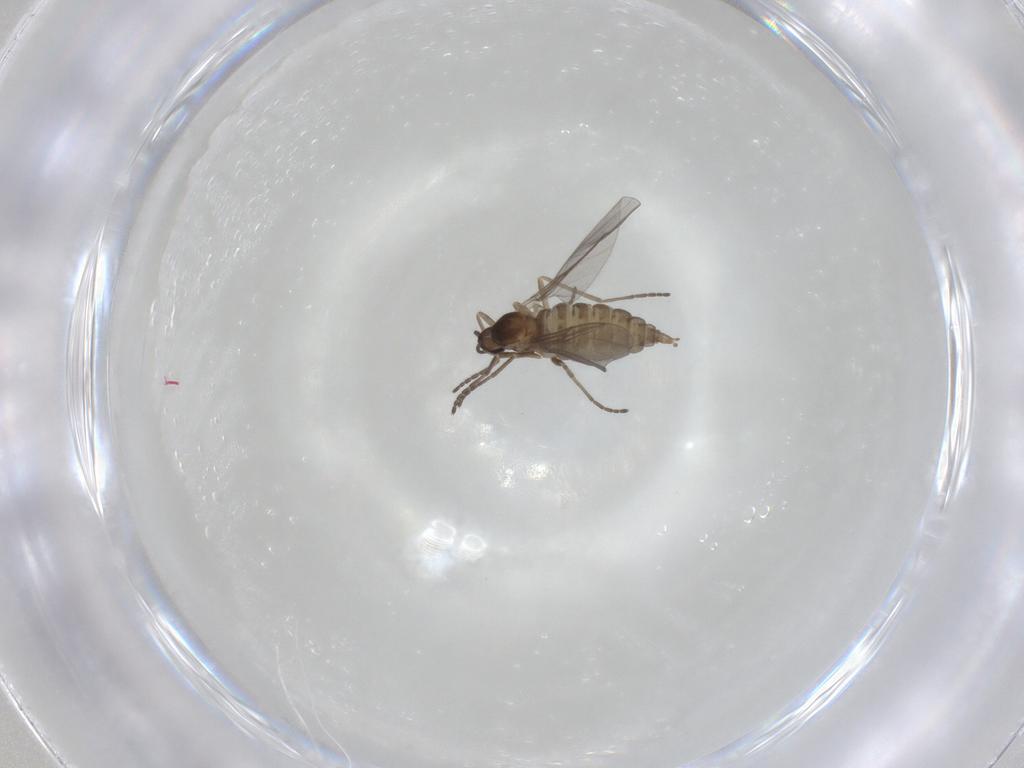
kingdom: Animalia
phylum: Arthropoda
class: Insecta
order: Diptera
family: Cecidomyiidae
